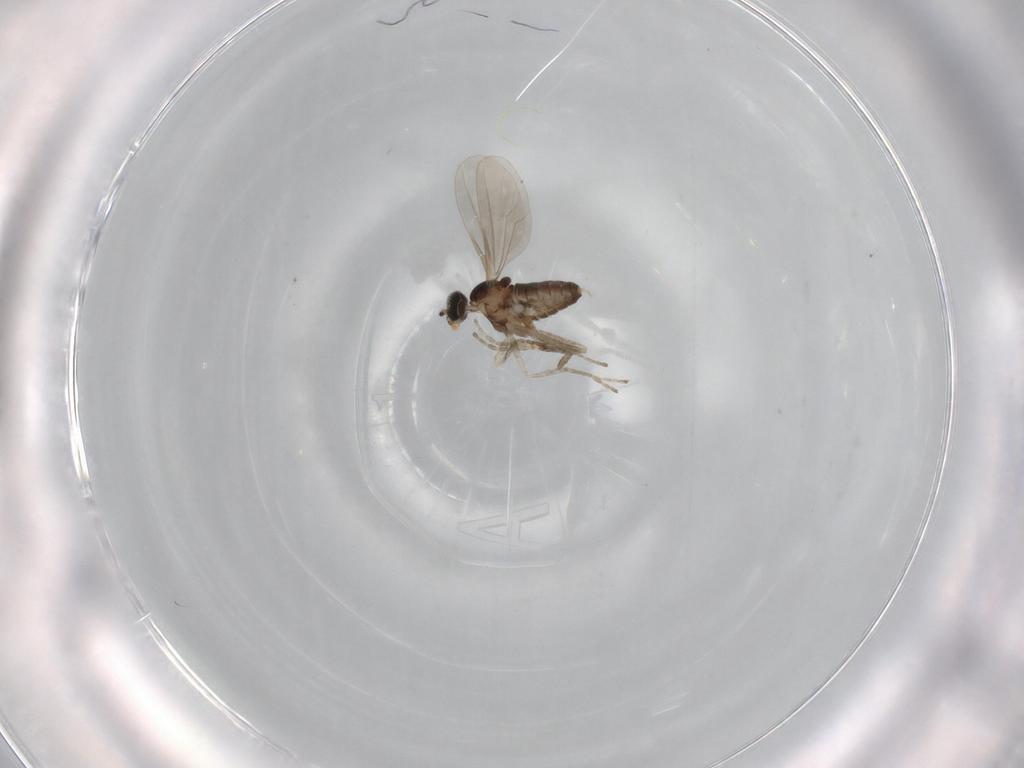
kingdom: Animalia
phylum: Arthropoda
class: Insecta
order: Diptera
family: Cecidomyiidae
